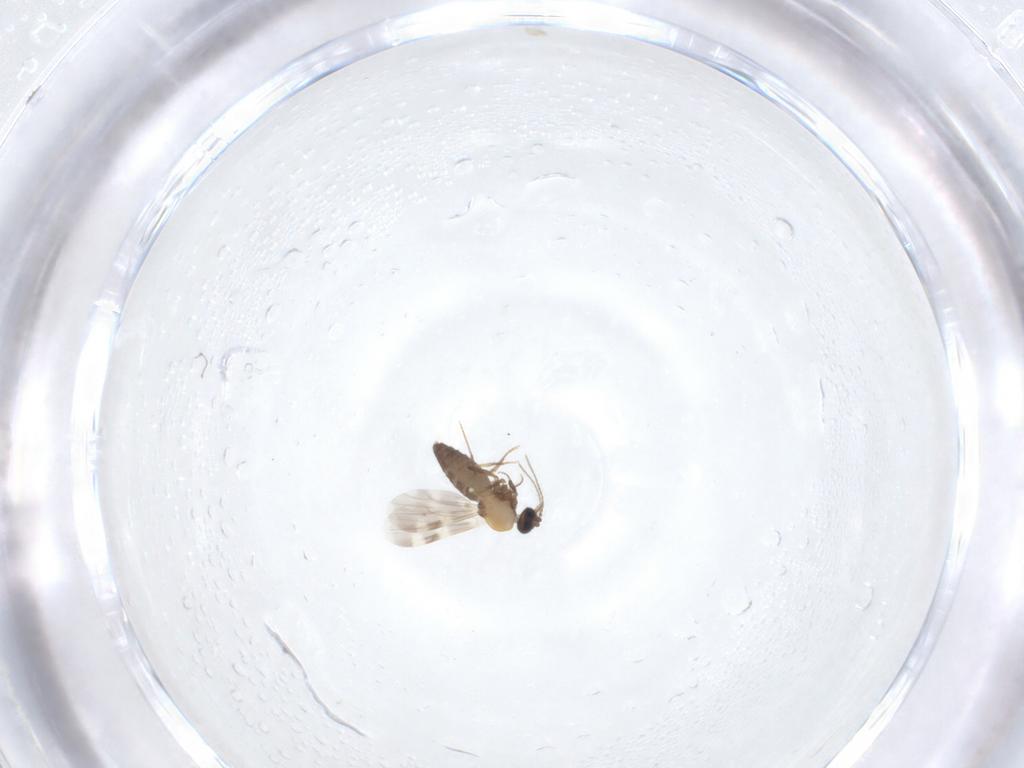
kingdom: Animalia
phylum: Arthropoda
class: Insecta
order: Diptera
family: Ceratopogonidae
